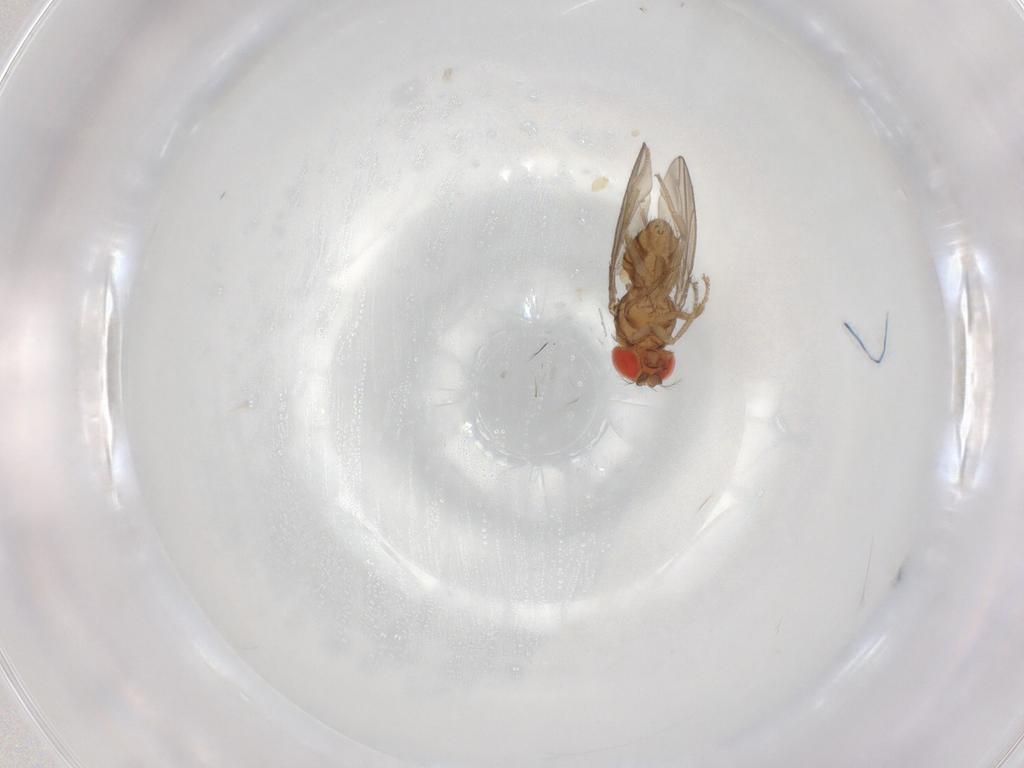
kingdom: Animalia
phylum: Arthropoda
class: Insecta
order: Diptera
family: Drosophilidae
